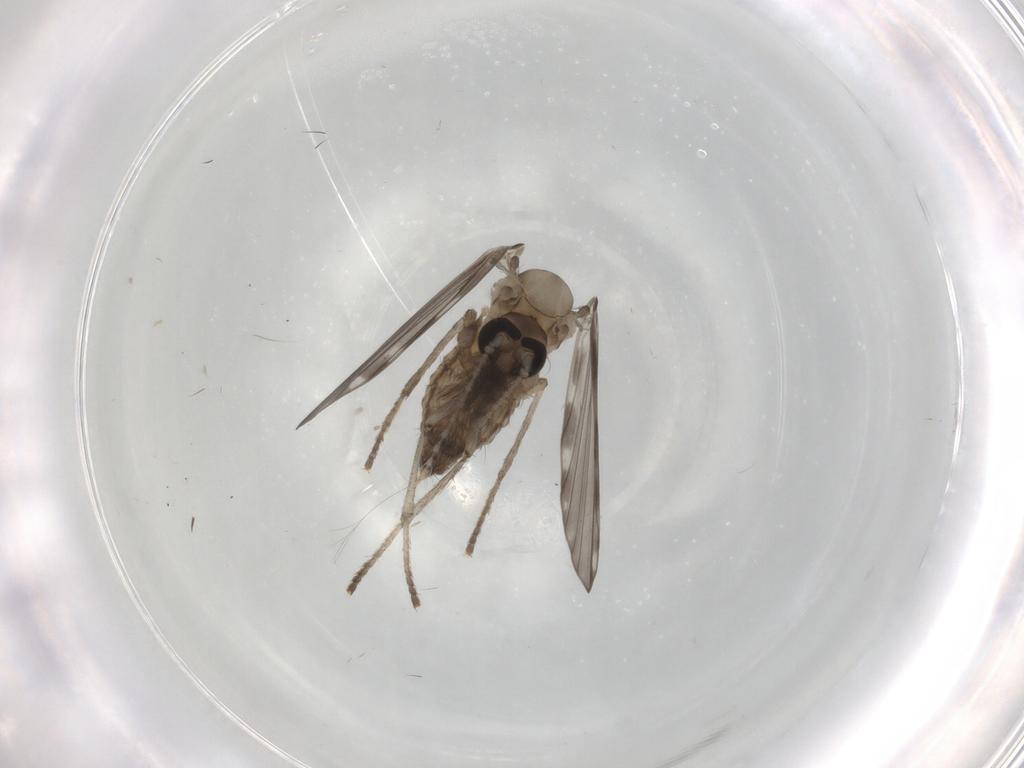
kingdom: Animalia
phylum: Arthropoda
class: Insecta
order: Diptera
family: Psychodidae
